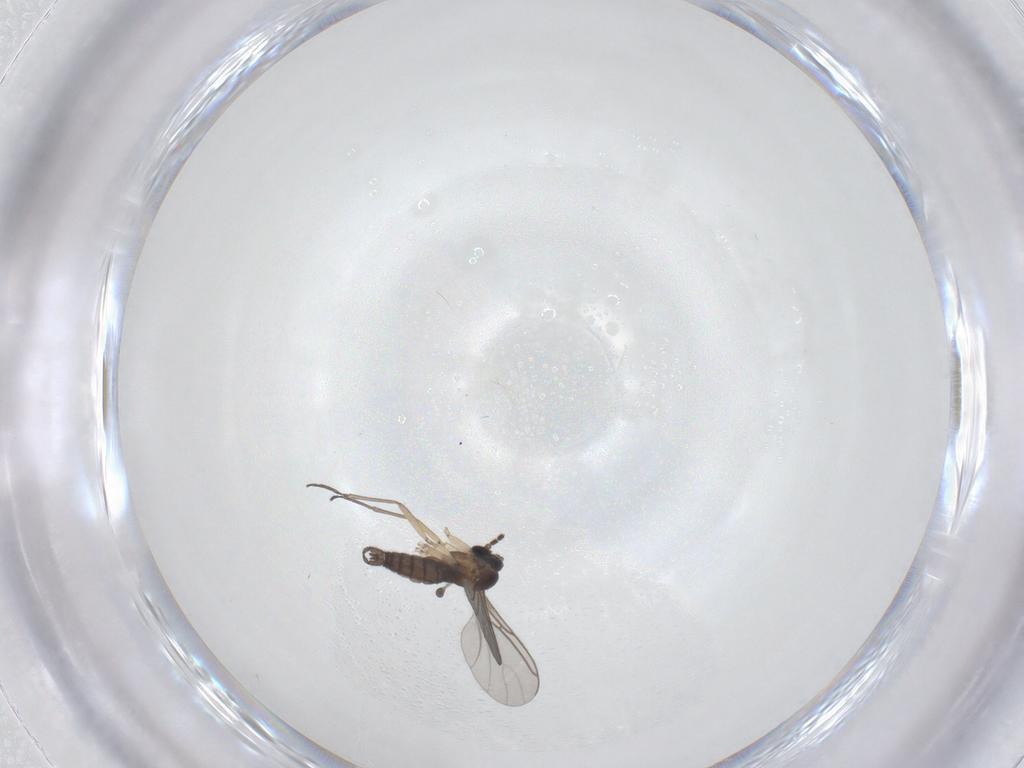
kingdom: Animalia
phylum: Arthropoda
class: Insecta
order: Diptera
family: Sciaridae
